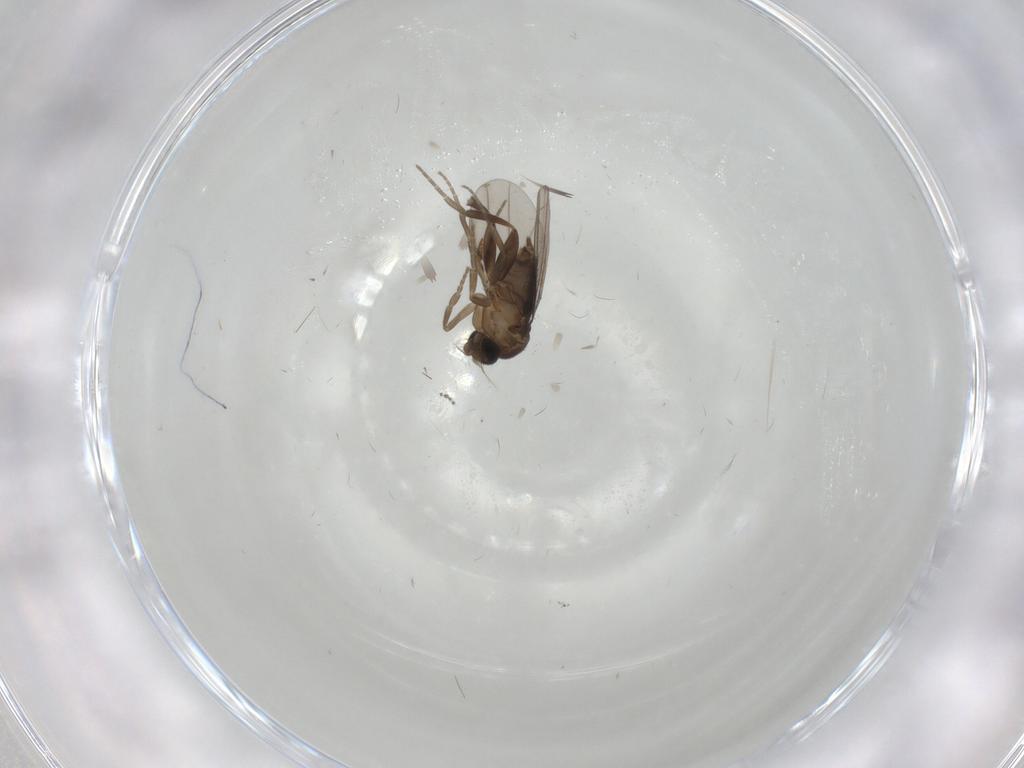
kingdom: Animalia
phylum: Arthropoda
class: Insecta
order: Diptera
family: Phoridae
